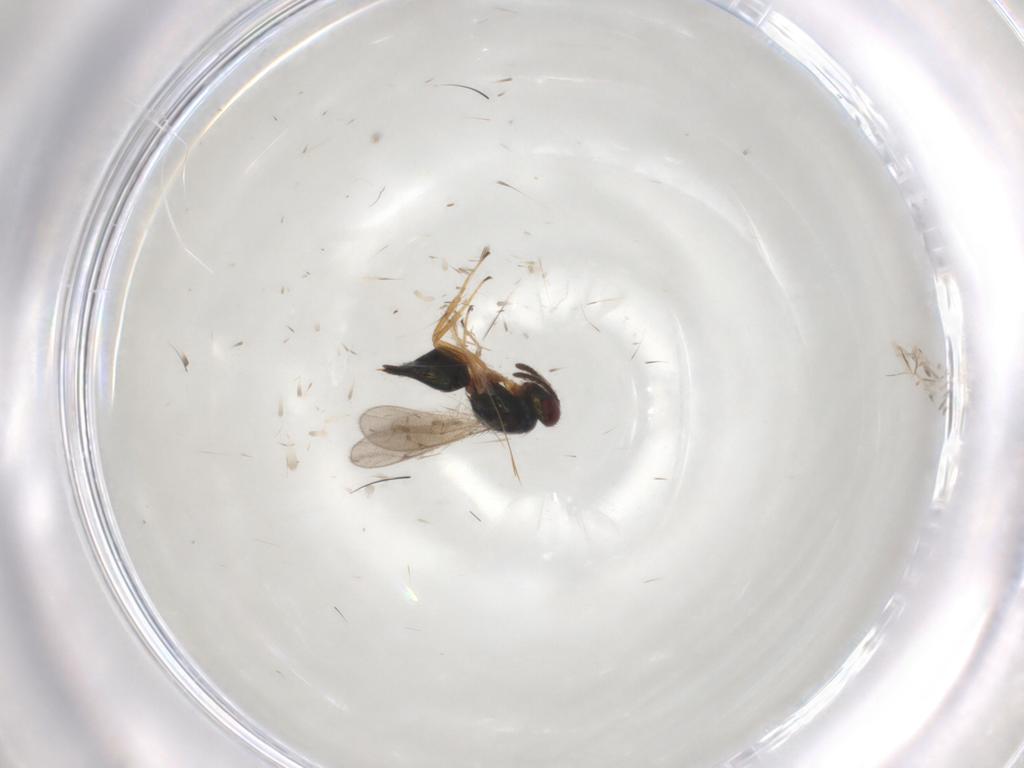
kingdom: Animalia
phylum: Arthropoda
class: Insecta
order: Hymenoptera
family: Tetracampidae
